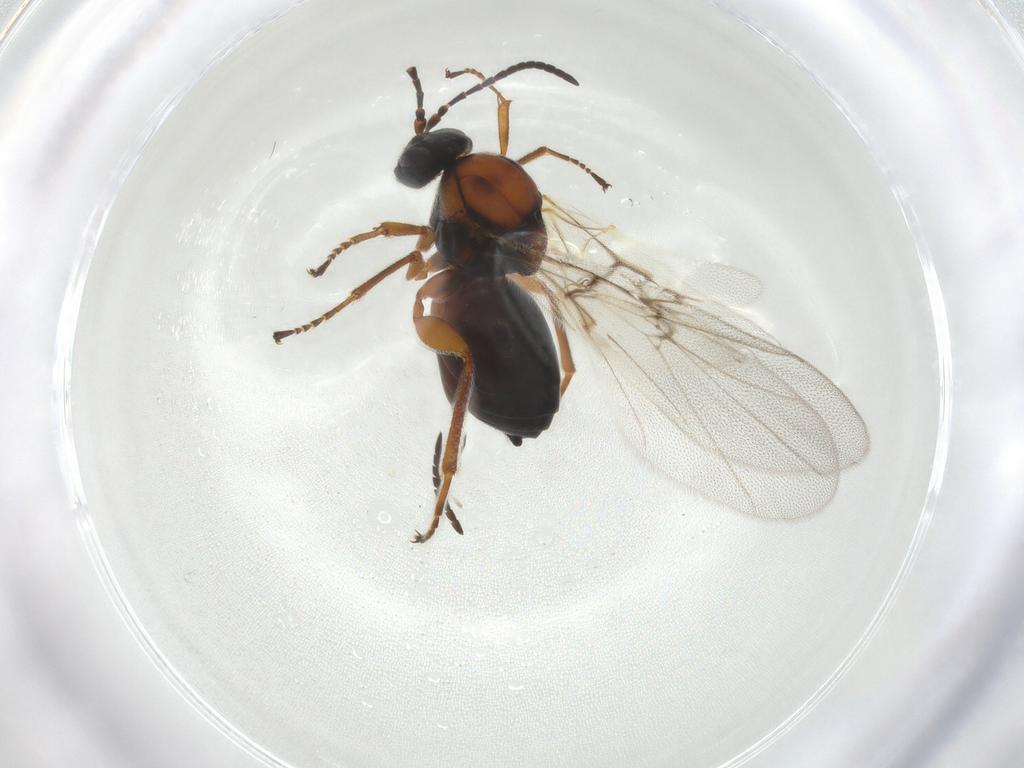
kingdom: Animalia
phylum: Arthropoda
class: Insecta
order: Hymenoptera
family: Cynipidae
